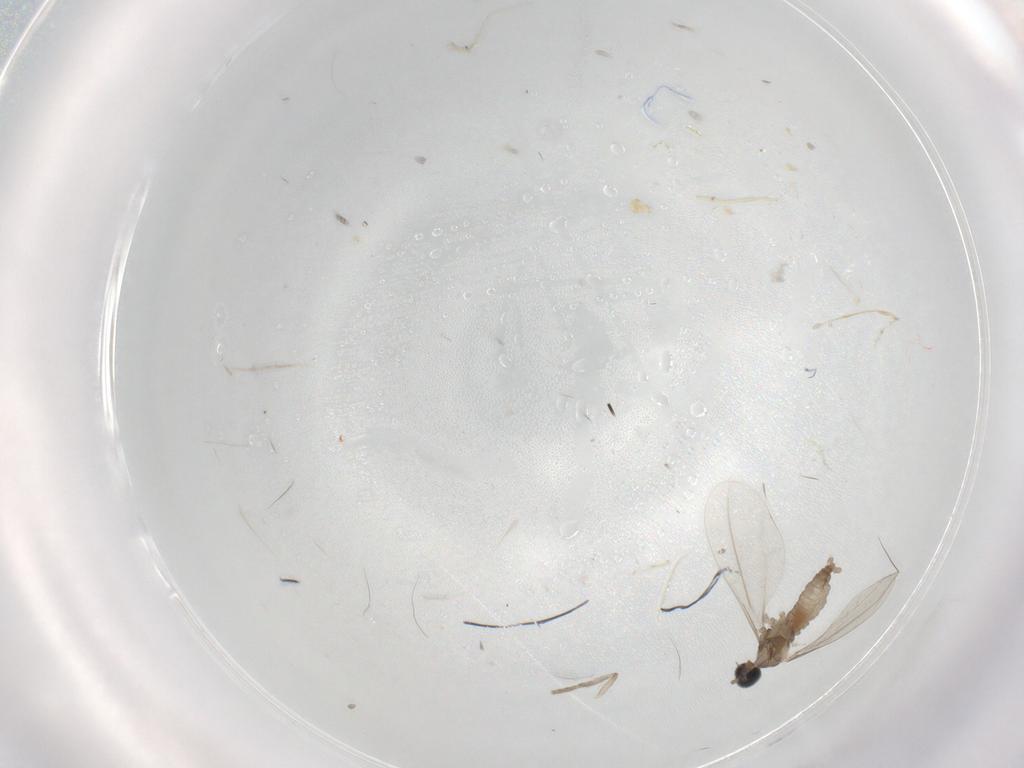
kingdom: Animalia
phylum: Arthropoda
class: Insecta
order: Diptera
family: Cecidomyiidae
